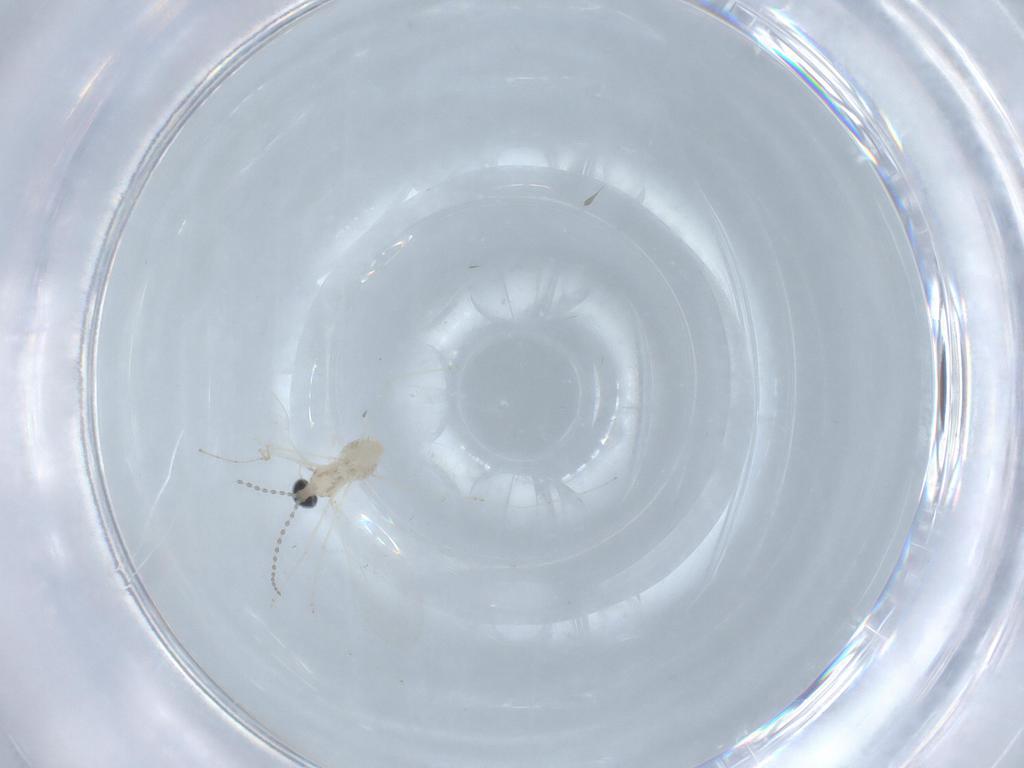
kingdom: Animalia
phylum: Arthropoda
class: Insecta
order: Diptera
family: Cecidomyiidae
